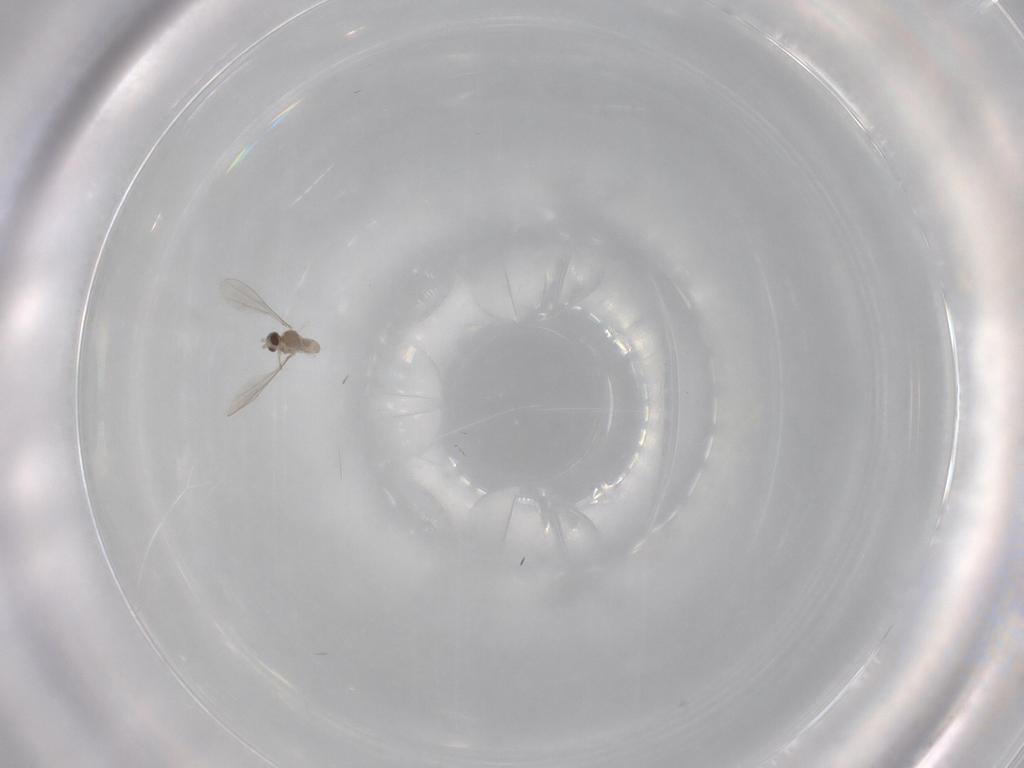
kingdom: Animalia
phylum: Arthropoda
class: Insecta
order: Diptera
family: Cecidomyiidae
